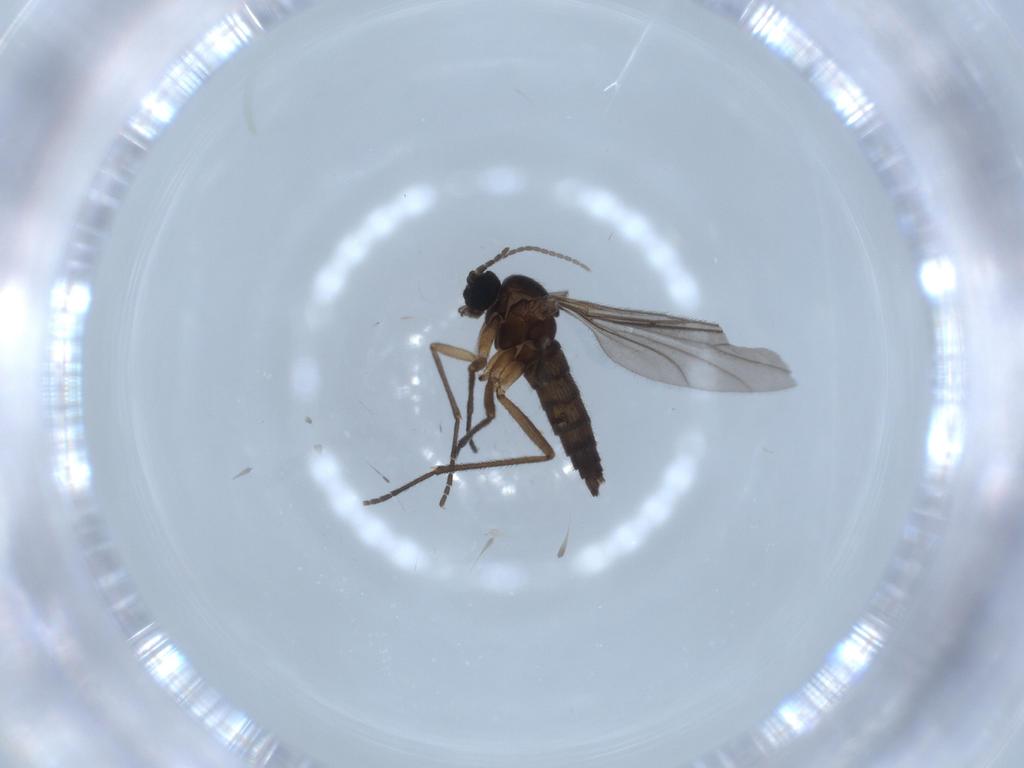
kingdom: Animalia
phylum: Arthropoda
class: Insecta
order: Diptera
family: Sciaridae
